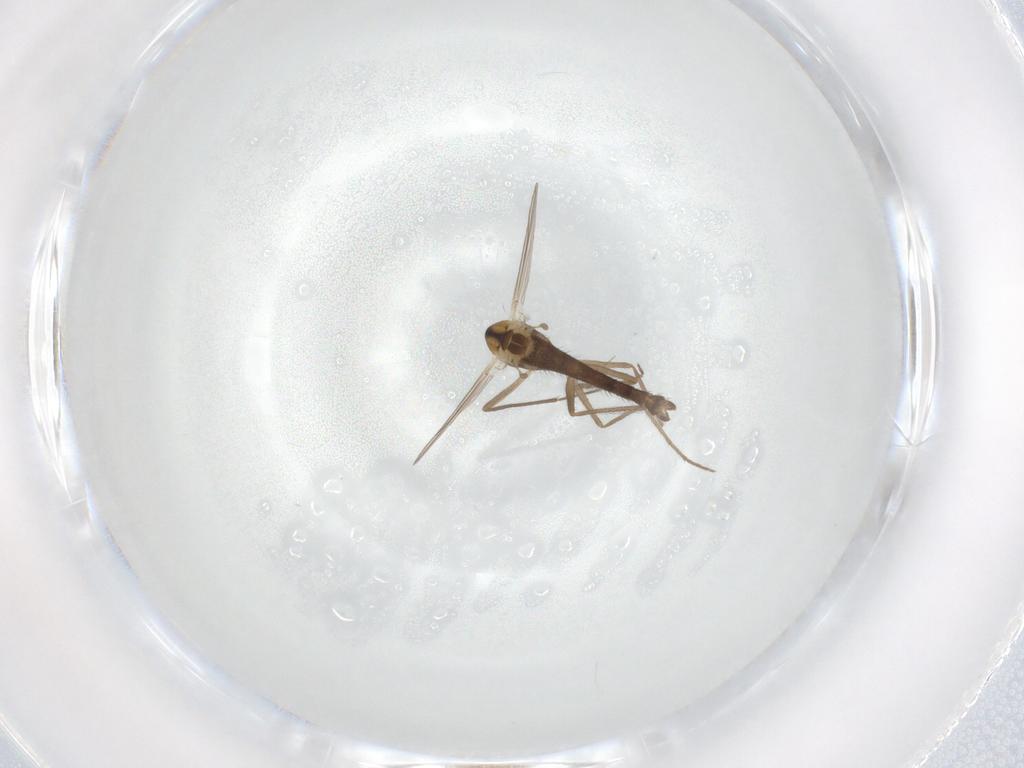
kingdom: Animalia
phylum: Arthropoda
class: Insecta
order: Diptera
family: Chironomidae
